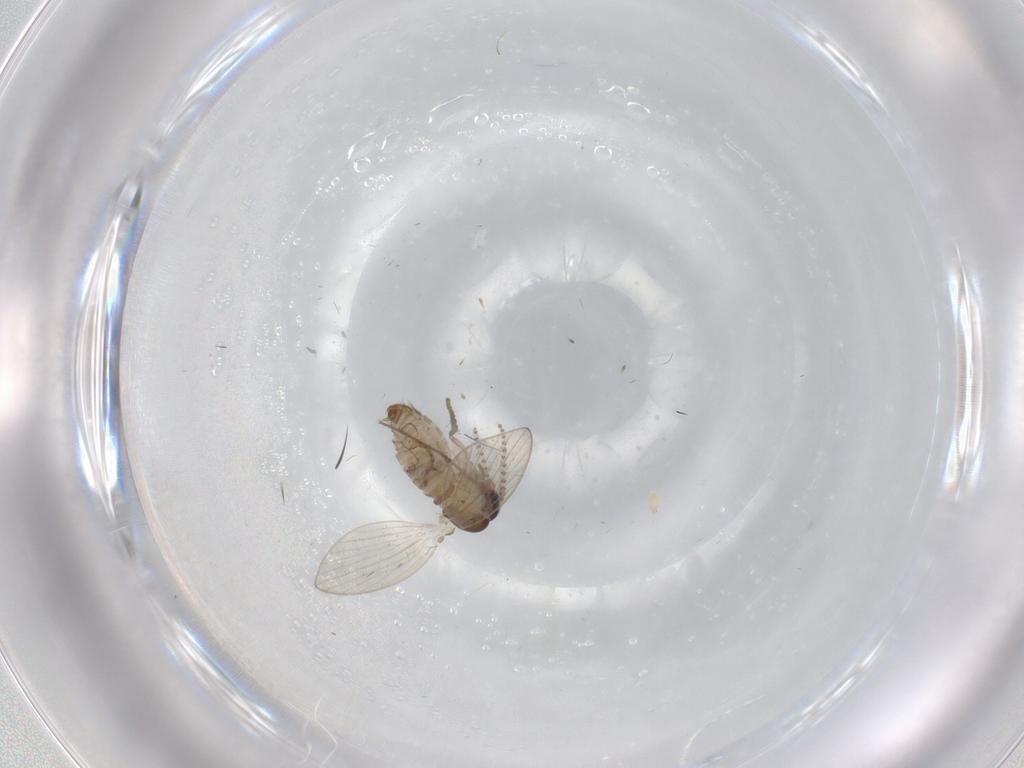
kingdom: Animalia
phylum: Arthropoda
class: Insecta
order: Diptera
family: Psychodidae
